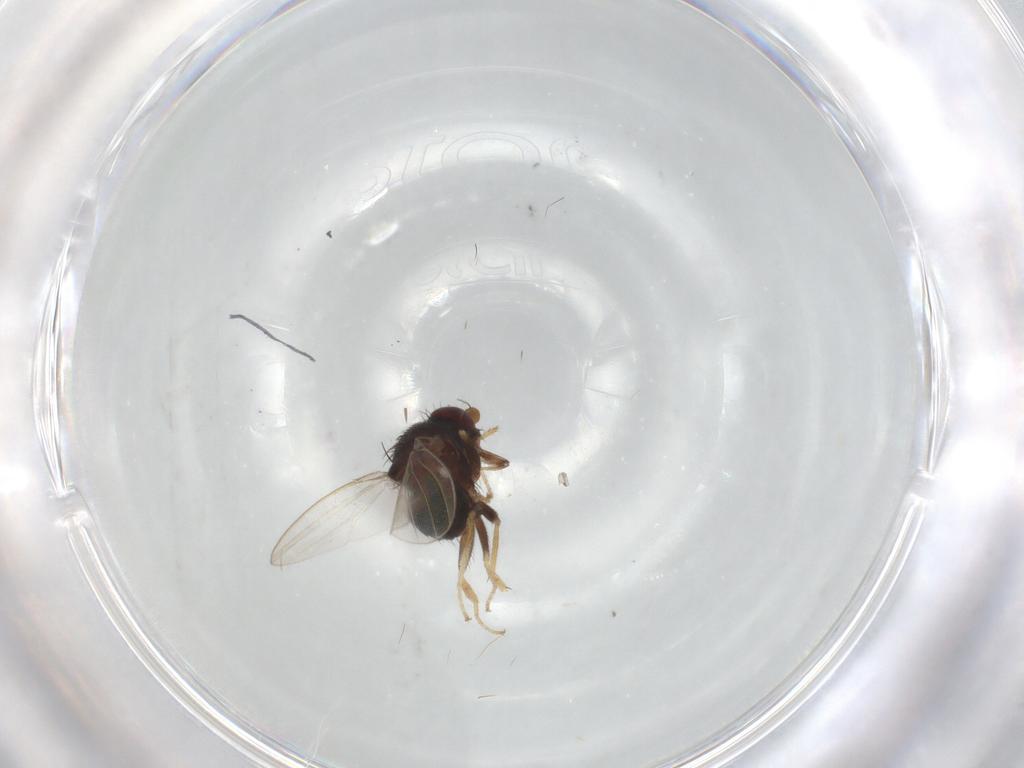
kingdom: Animalia
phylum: Arthropoda
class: Insecta
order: Diptera
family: Milichiidae
